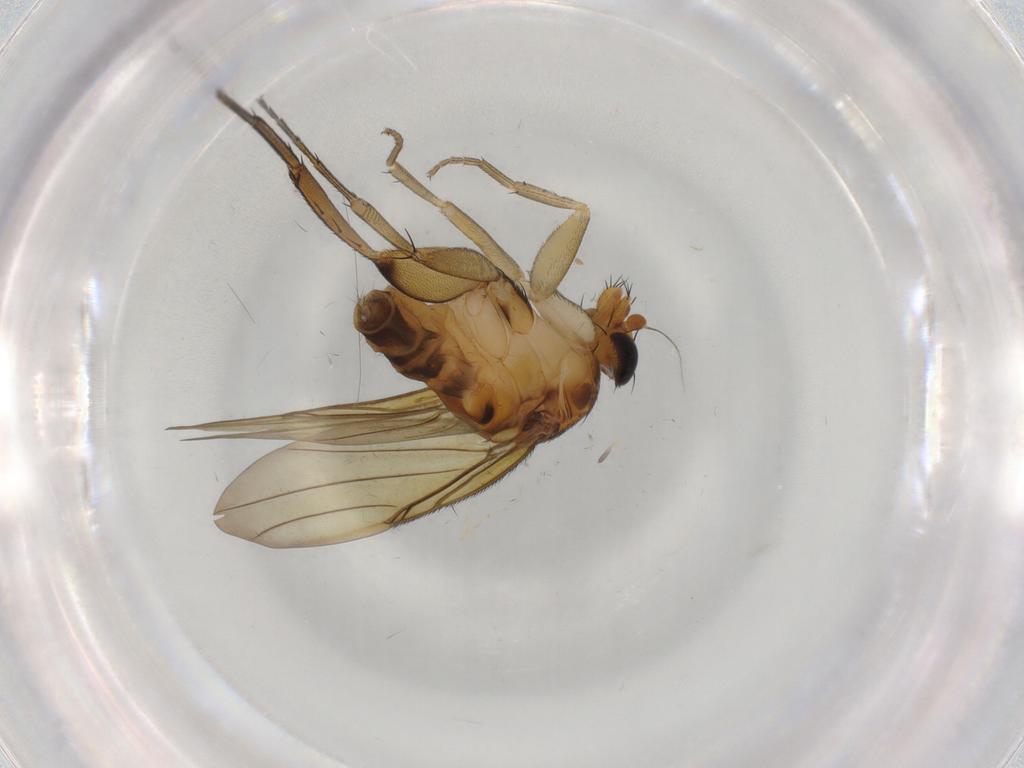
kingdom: Animalia
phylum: Arthropoda
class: Insecta
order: Diptera
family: Phoridae
